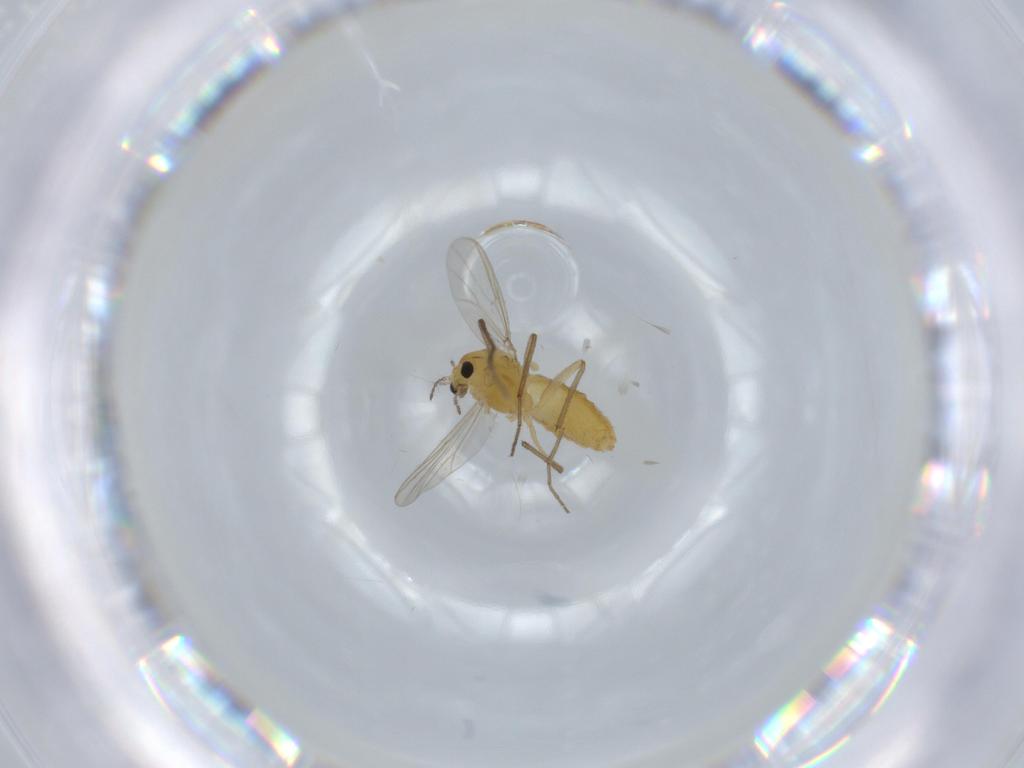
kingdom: Animalia
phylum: Arthropoda
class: Insecta
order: Diptera
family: Chironomidae
